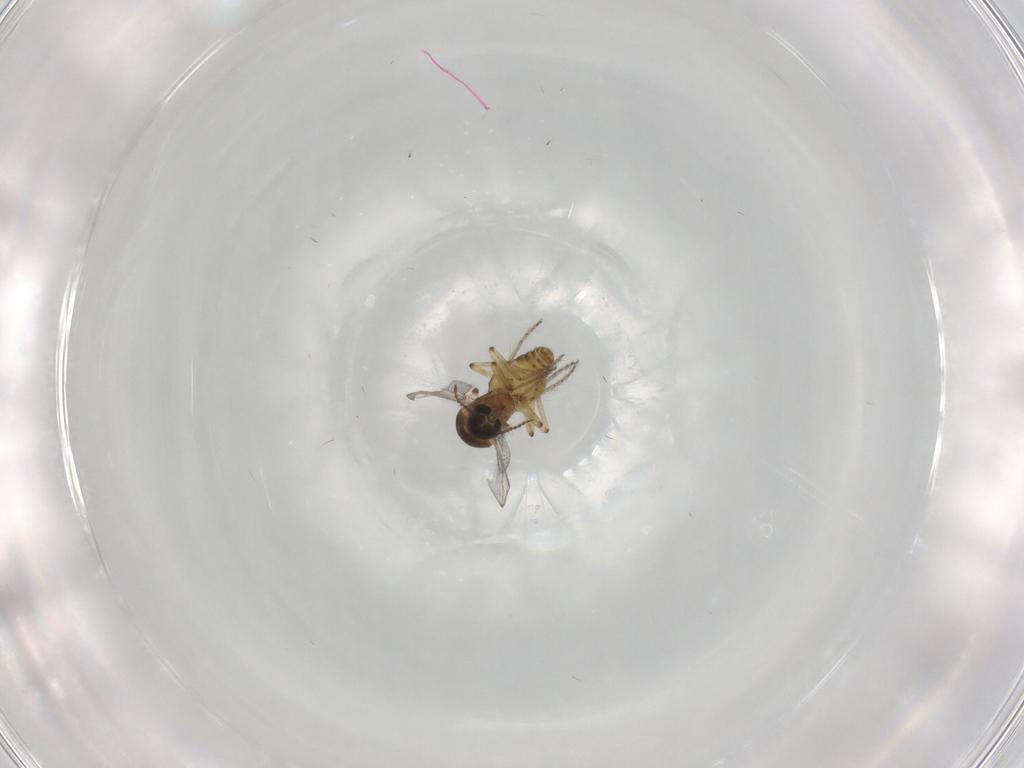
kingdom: Animalia
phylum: Arthropoda
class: Insecta
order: Diptera
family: Ceratopogonidae
